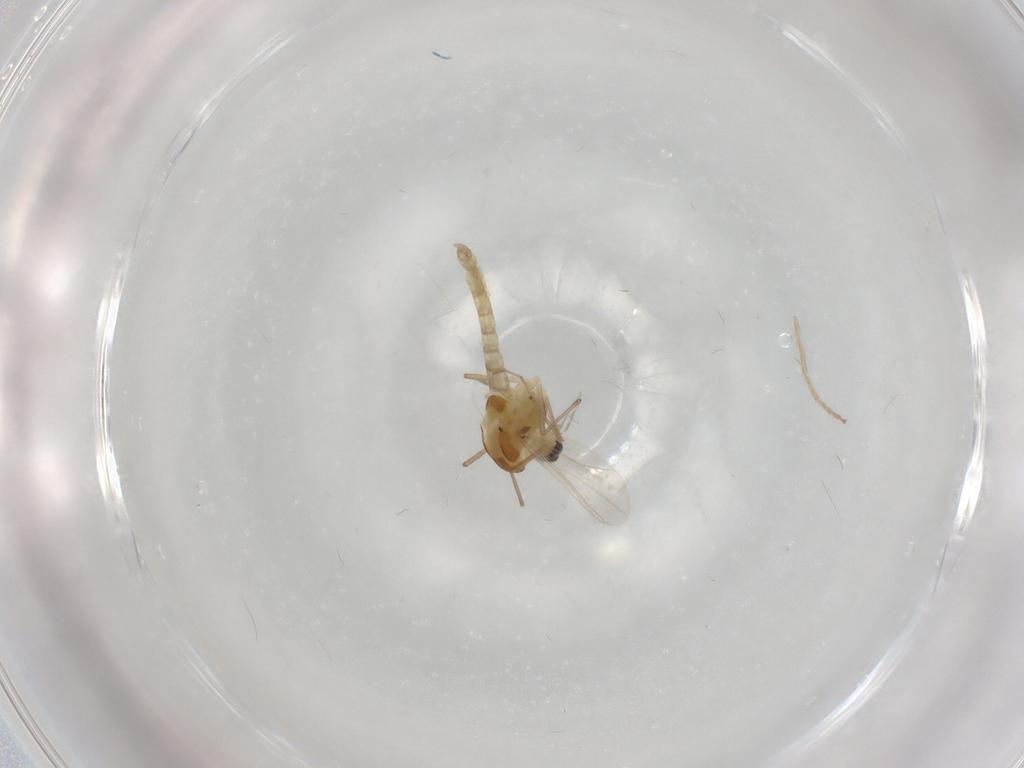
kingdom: Animalia
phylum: Arthropoda
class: Insecta
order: Diptera
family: Chironomidae
